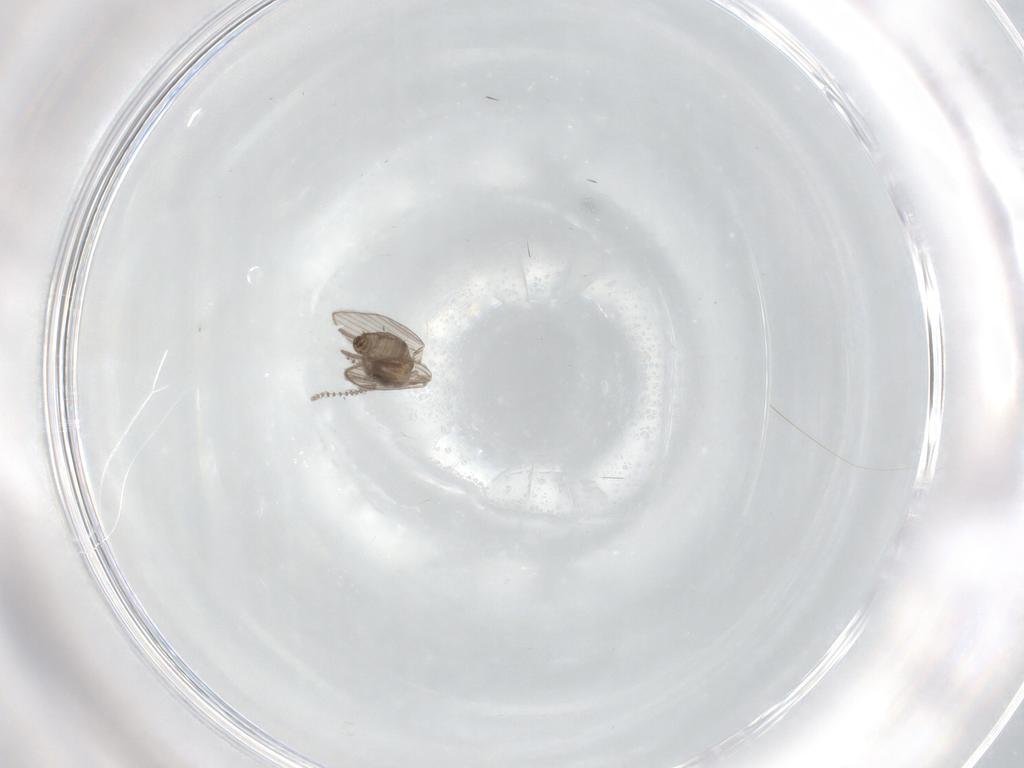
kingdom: Animalia
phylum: Arthropoda
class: Insecta
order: Diptera
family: Psychodidae
